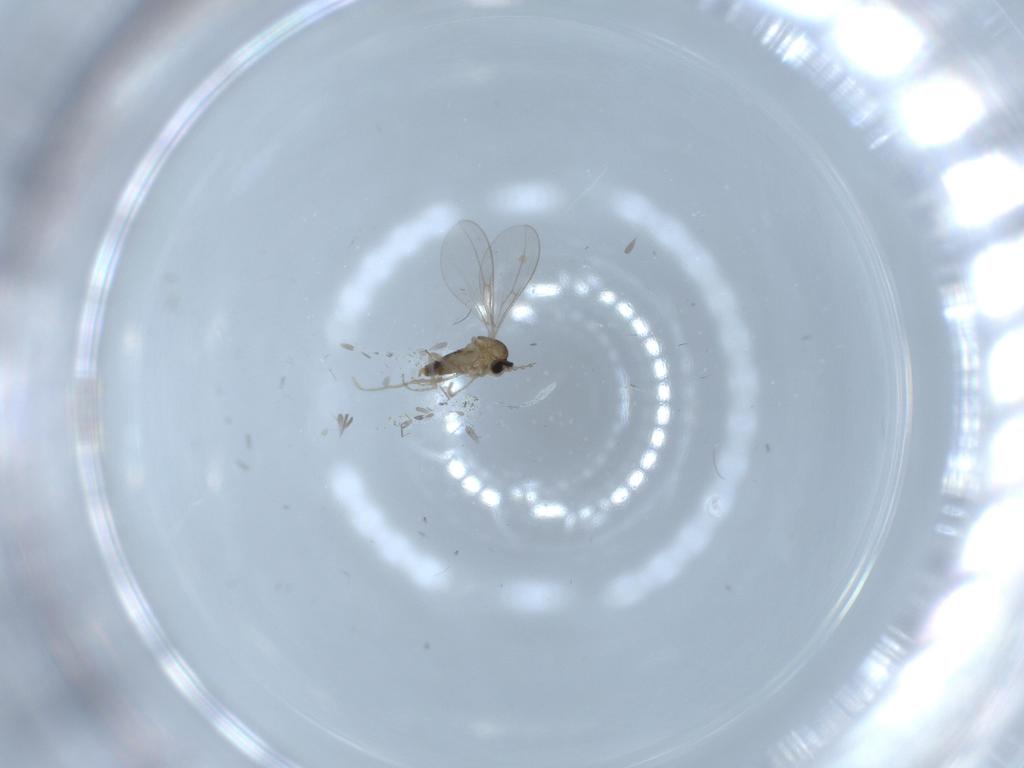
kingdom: Animalia
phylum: Arthropoda
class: Insecta
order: Diptera
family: Cecidomyiidae
